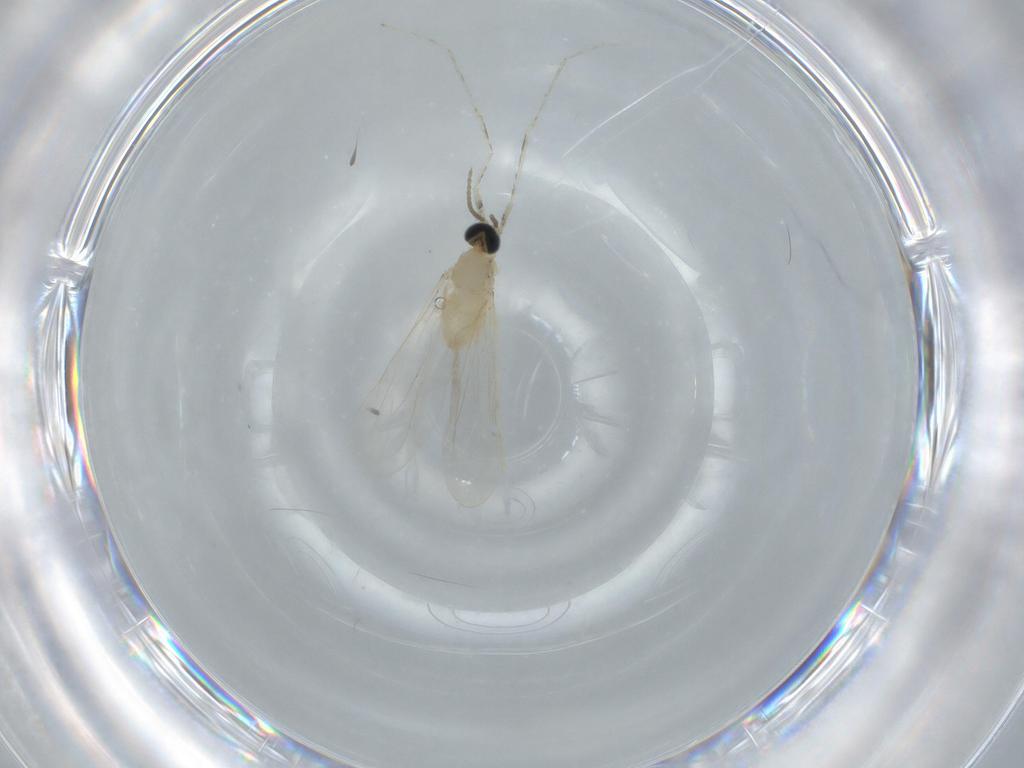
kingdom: Animalia
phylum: Arthropoda
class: Insecta
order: Diptera
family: Cecidomyiidae
